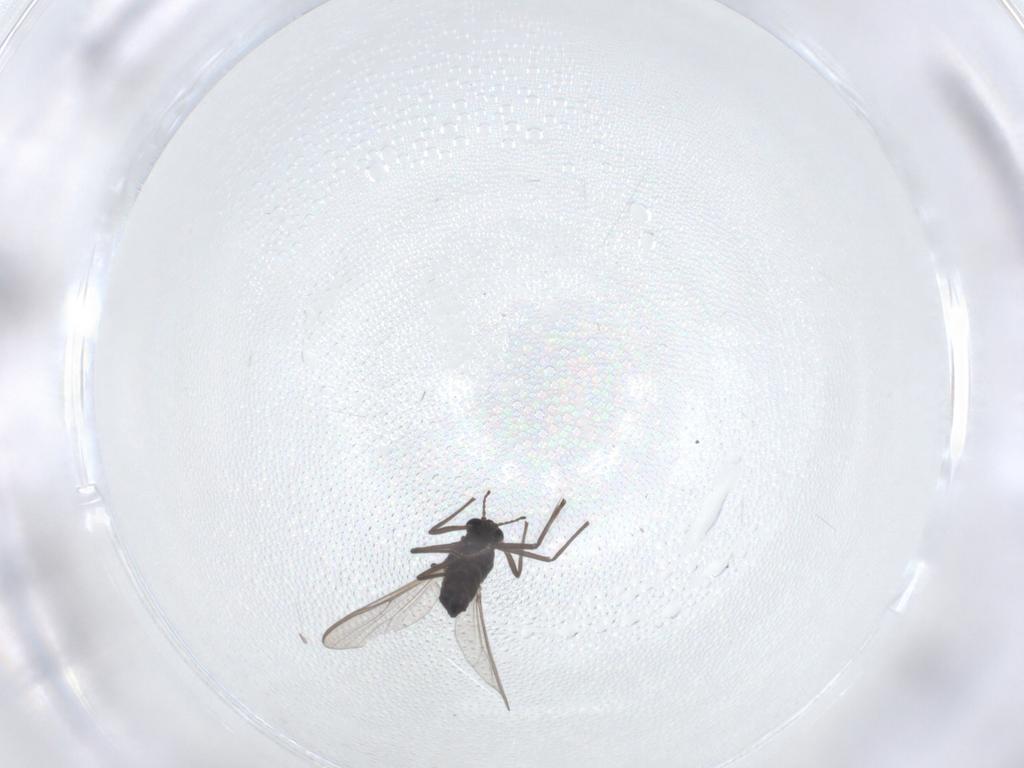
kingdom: Animalia
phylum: Arthropoda
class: Insecta
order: Diptera
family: Chironomidae
